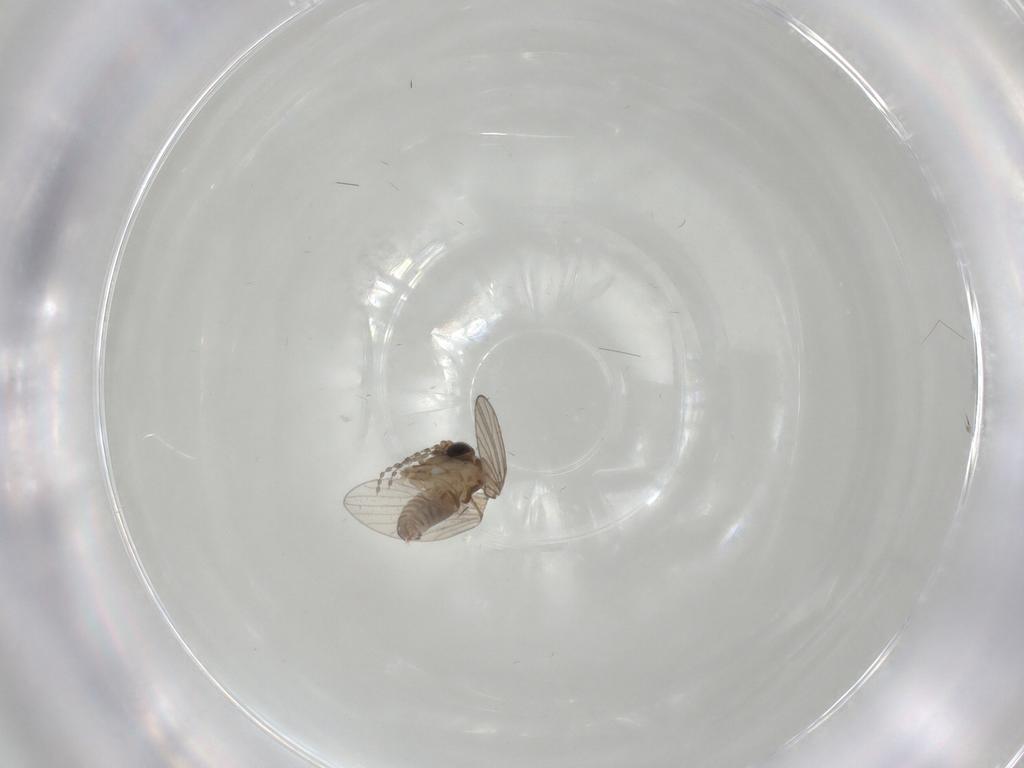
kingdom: Animalia
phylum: Arthropoda
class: Insecta
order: Diptera
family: Psychodidae
